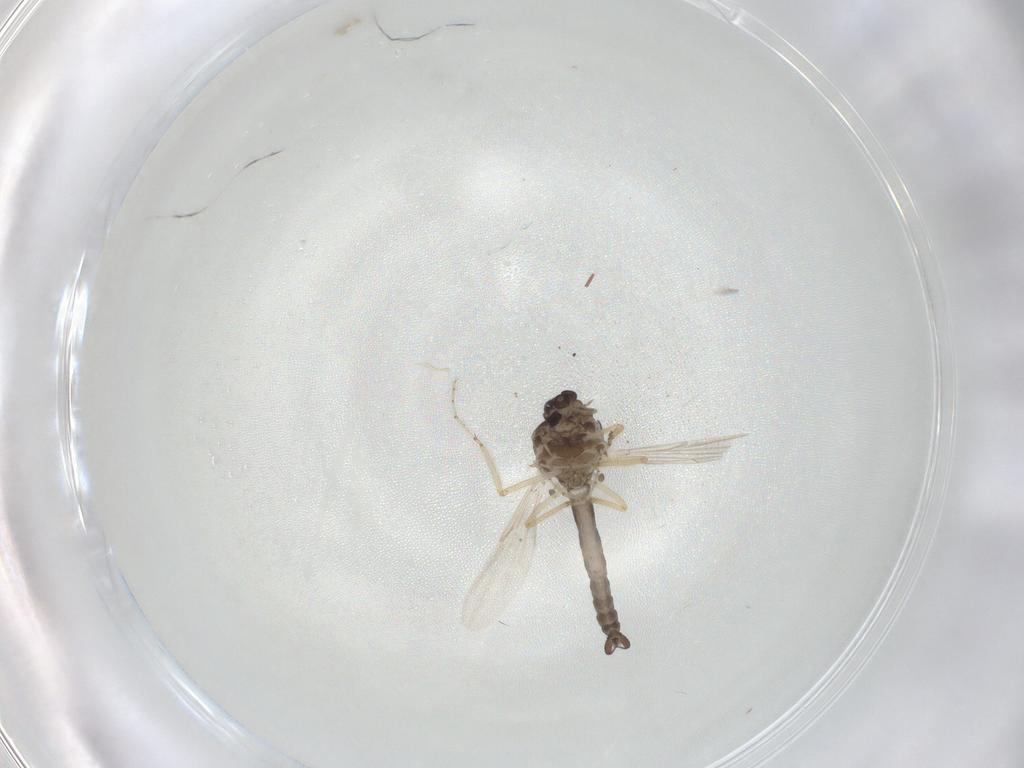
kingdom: Animalia
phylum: Arthropoda
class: Insecta
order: Diptera
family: Ceratopogonidae
